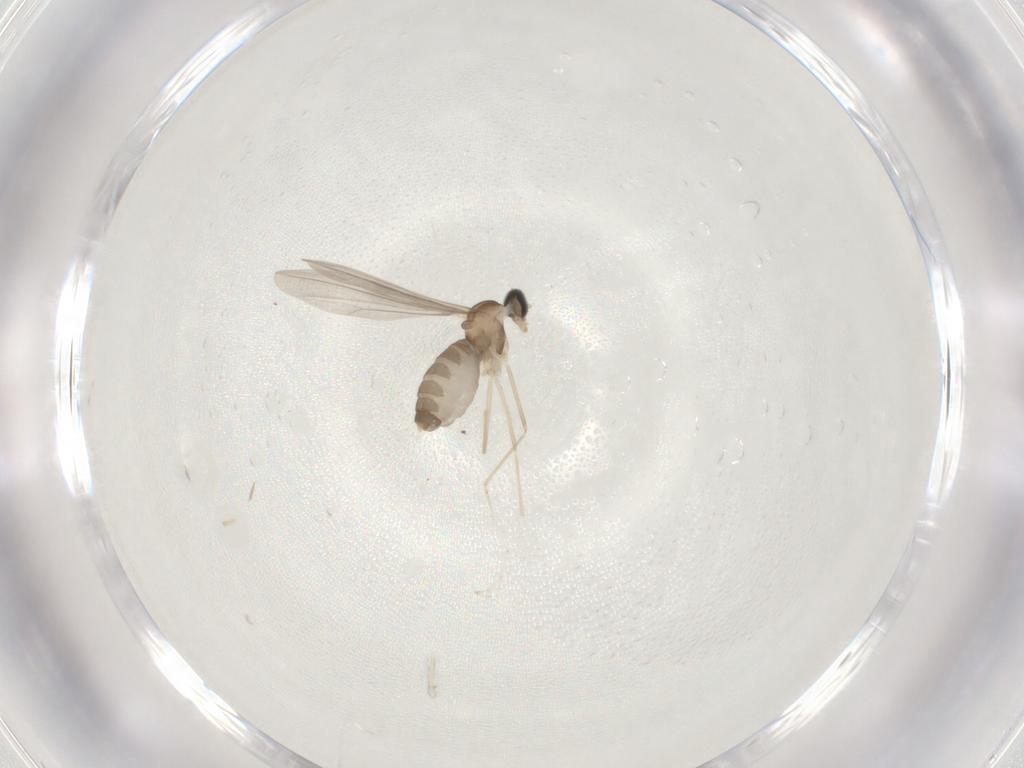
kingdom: Animalia
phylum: Arthropoda
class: Insecta
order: Diptera
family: Cecidomyiidae
